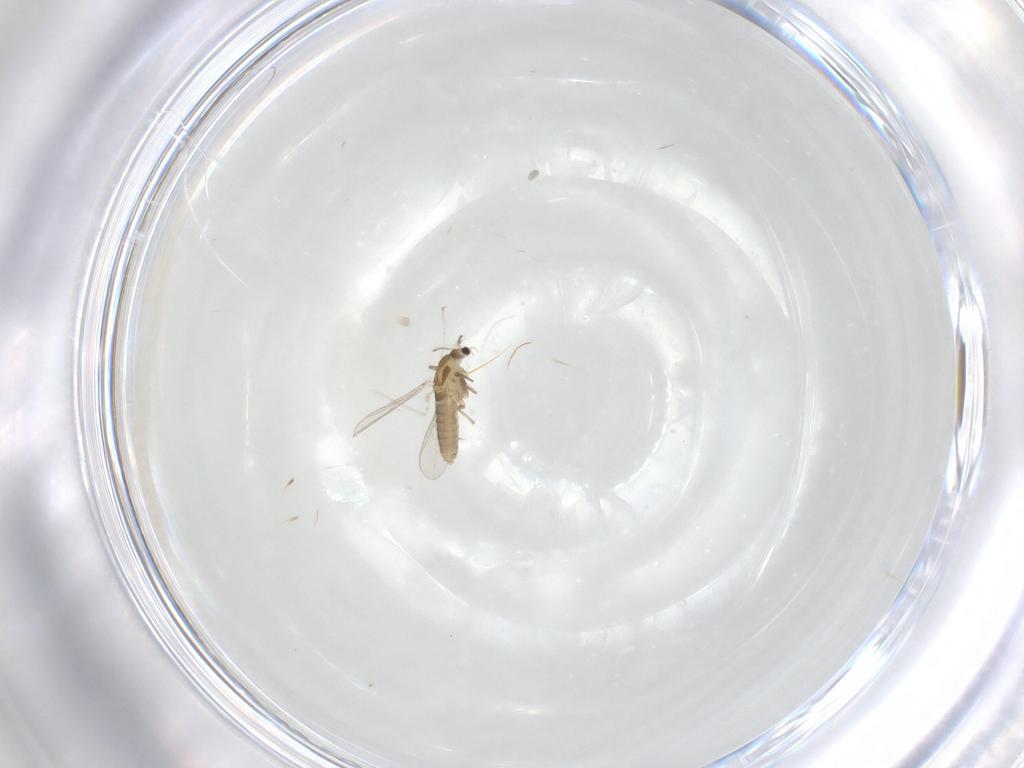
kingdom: Animalia
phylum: Arthropoda
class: Insecta
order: Diptera
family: Chironomidae
